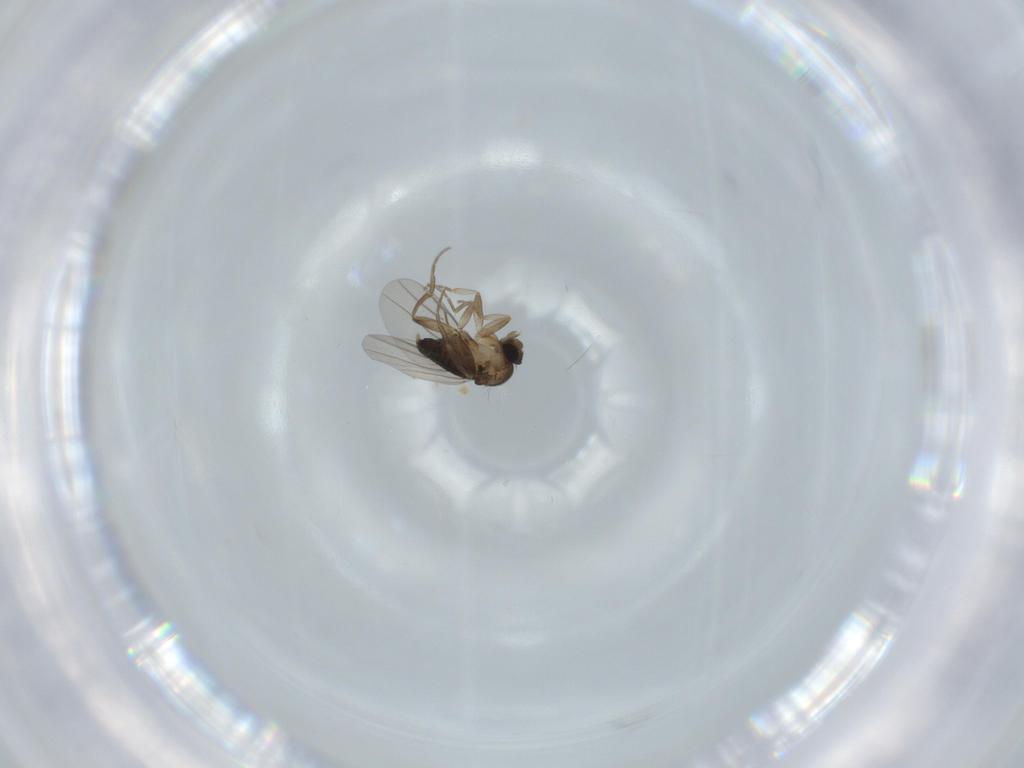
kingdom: Animalia
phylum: Arthropoda
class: Insecta
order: Diptera
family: Phoridae
